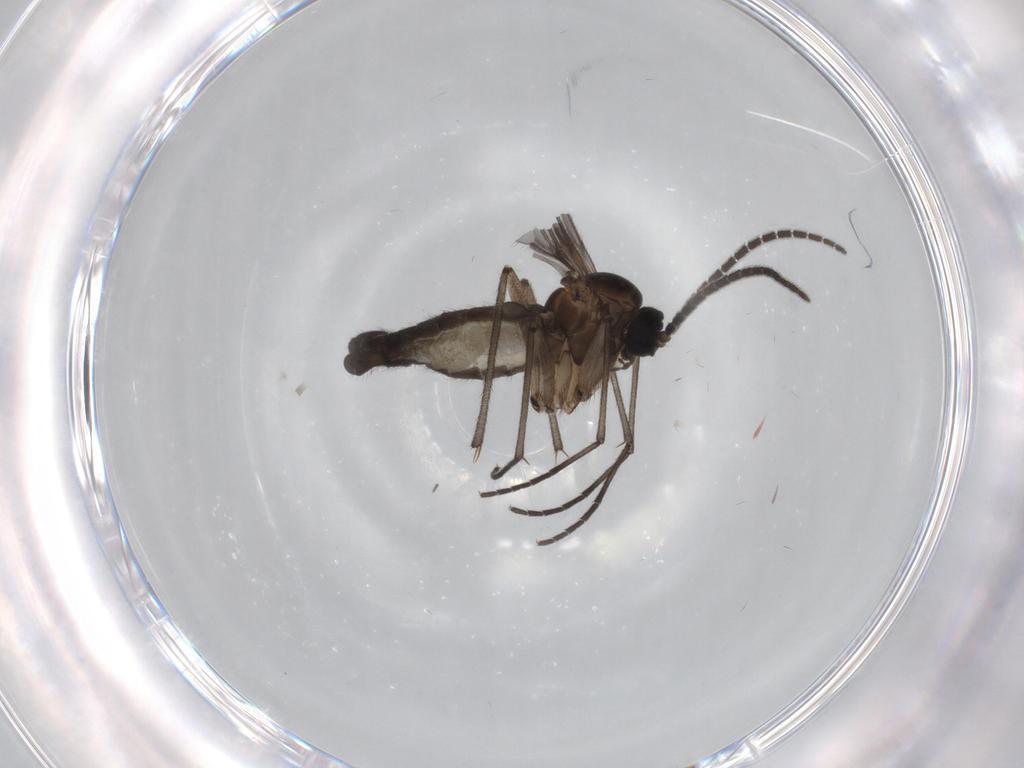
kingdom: Animalia
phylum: Arthropoda
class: Insecta
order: Diptera
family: Sciaridae
